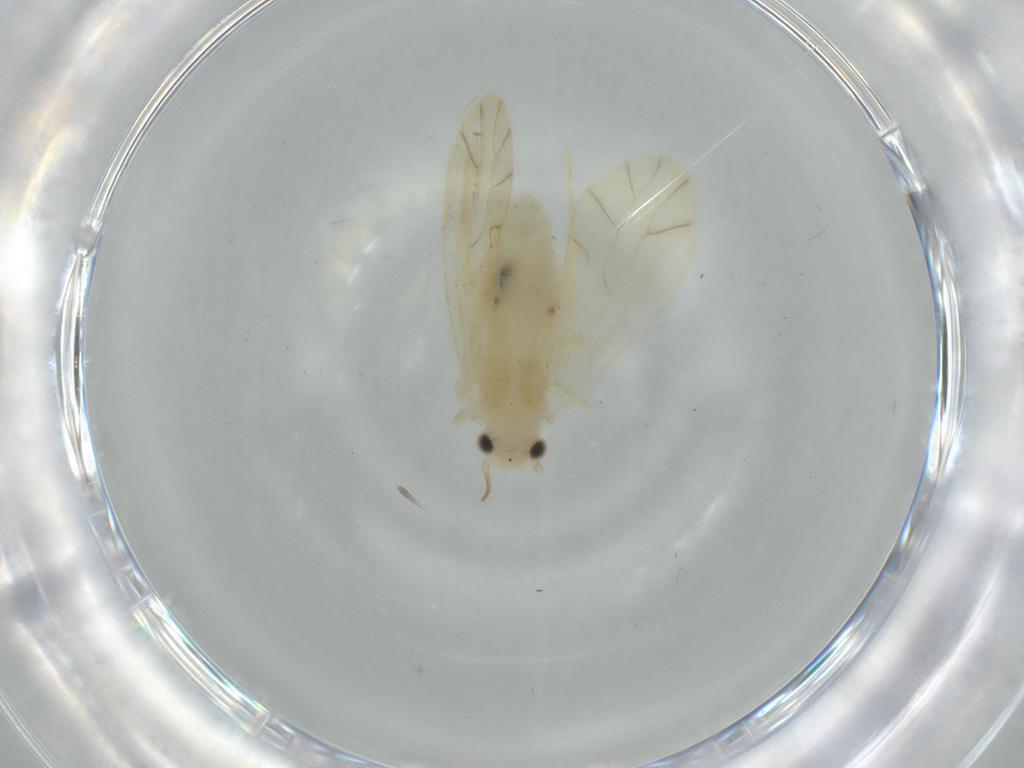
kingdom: Animalia
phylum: Arthropoda
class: Insecta
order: Psocodea
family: Caeciliusidae
